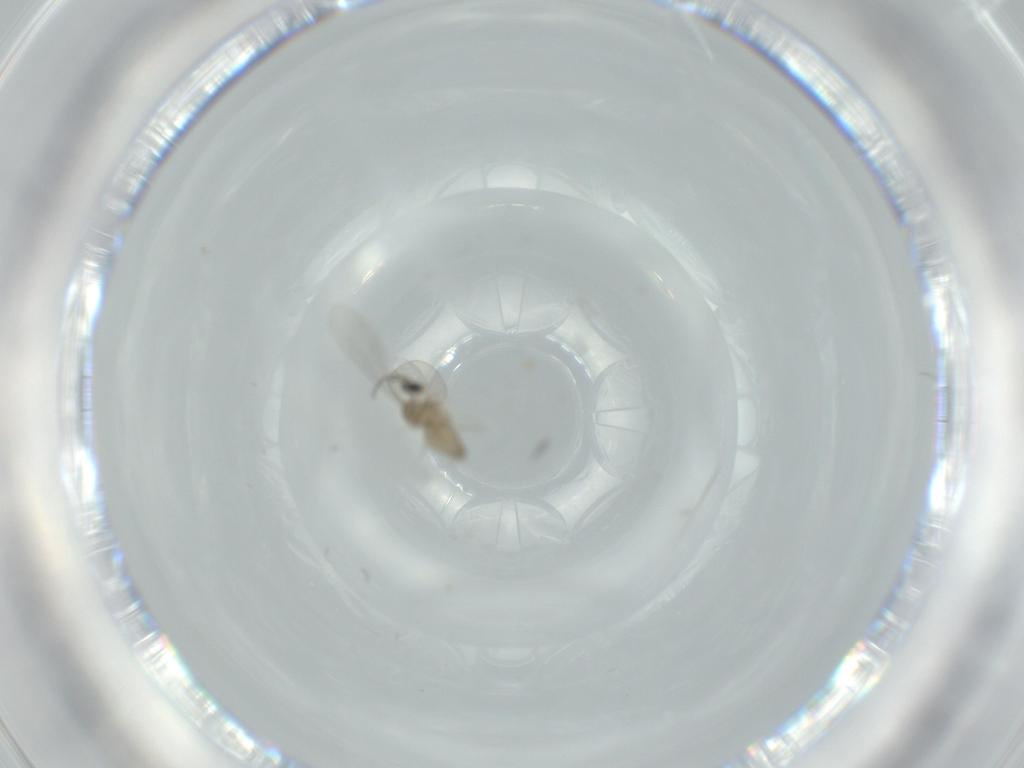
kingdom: Animalia
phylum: Arthropoda
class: Insecta
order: Diptera
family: Cecidomyiidae
